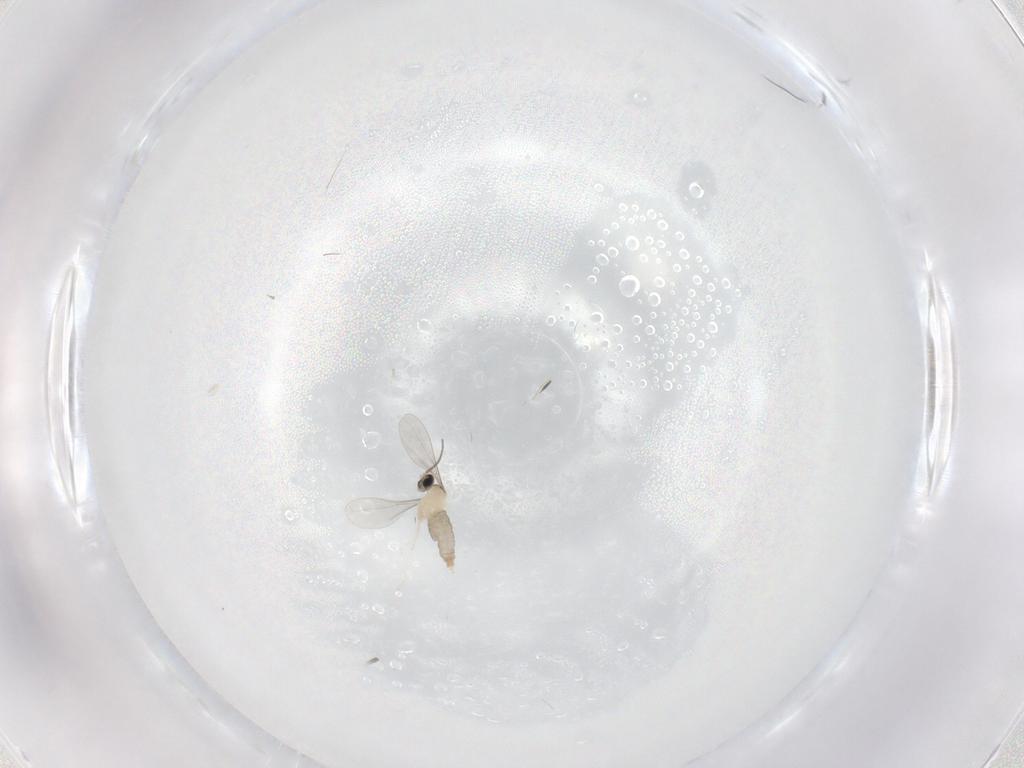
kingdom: Animalia
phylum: Arthropoda
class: Insecta
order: Diptera
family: Cecidomyiidae
